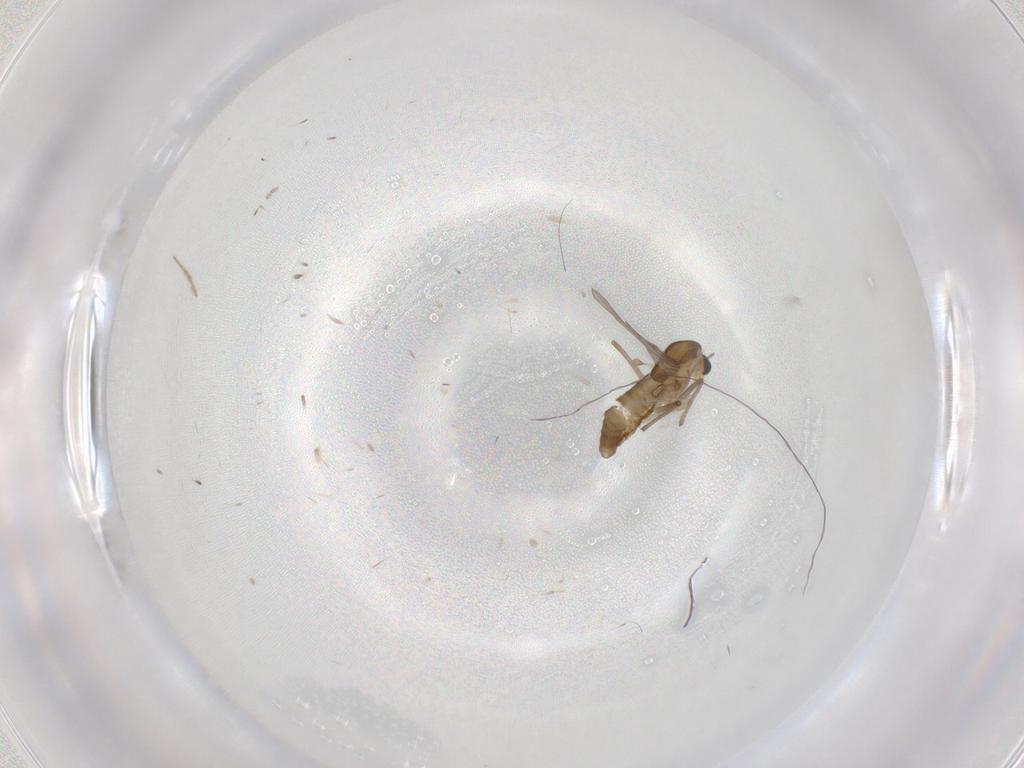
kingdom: Animalia
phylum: Arthropoda
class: Insecta
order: Diptera
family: Chironomidae
